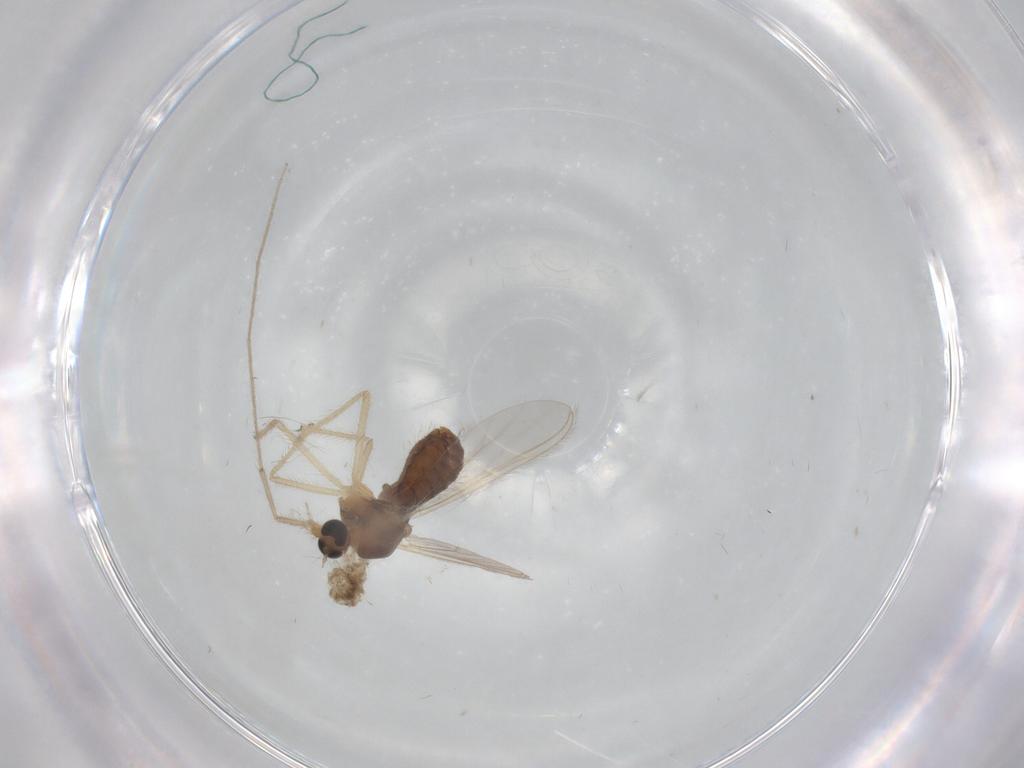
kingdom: Animalia
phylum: Arthropoda
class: Insecta
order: Diptera
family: Chironomidae
